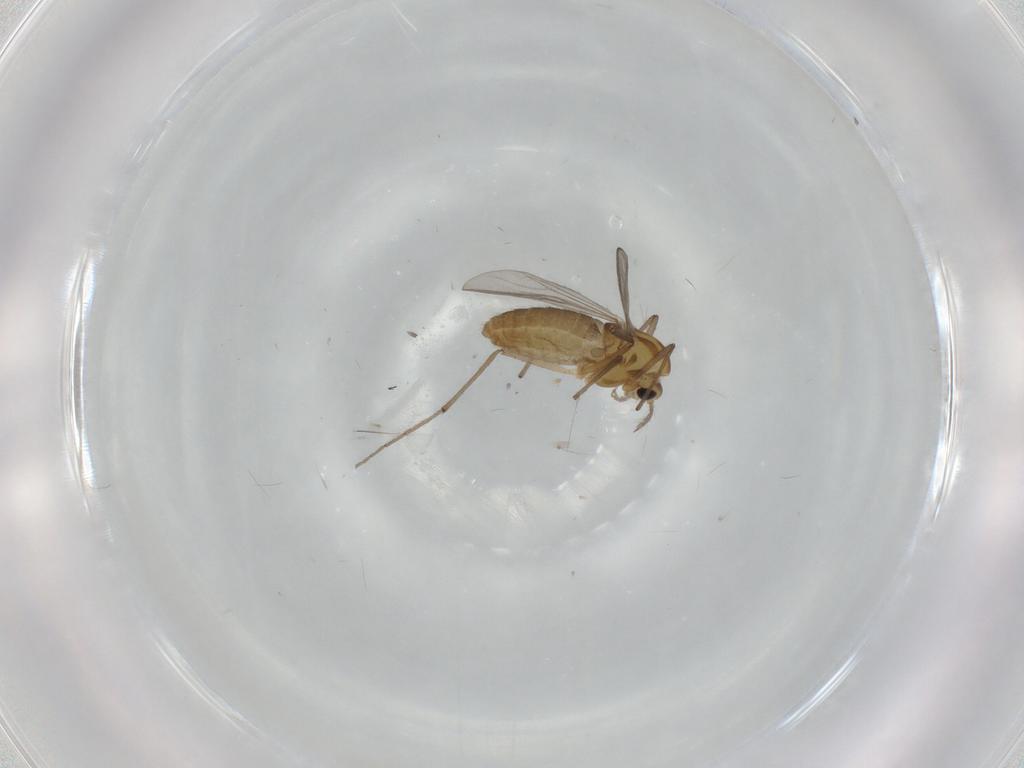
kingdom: Animalia
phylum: Arthropoda
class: Insecta
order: Diptera
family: Chironomidae
